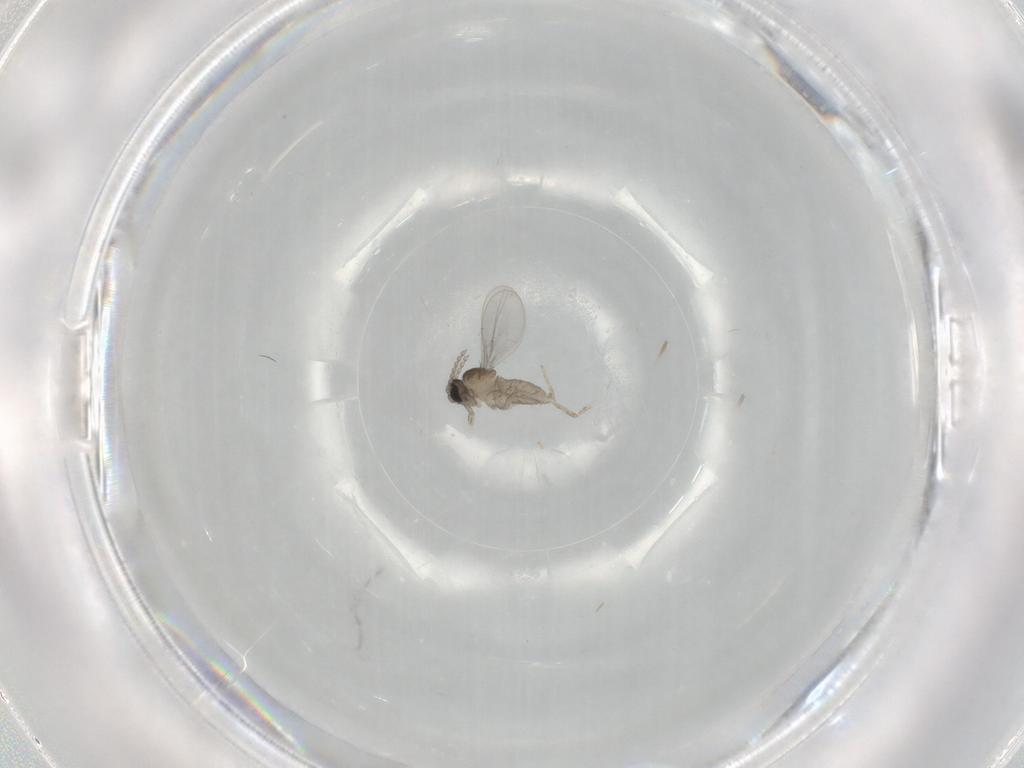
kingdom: Animalia
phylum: Arthropoda
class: Insecta
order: Diptera
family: Cecidomyiidae
